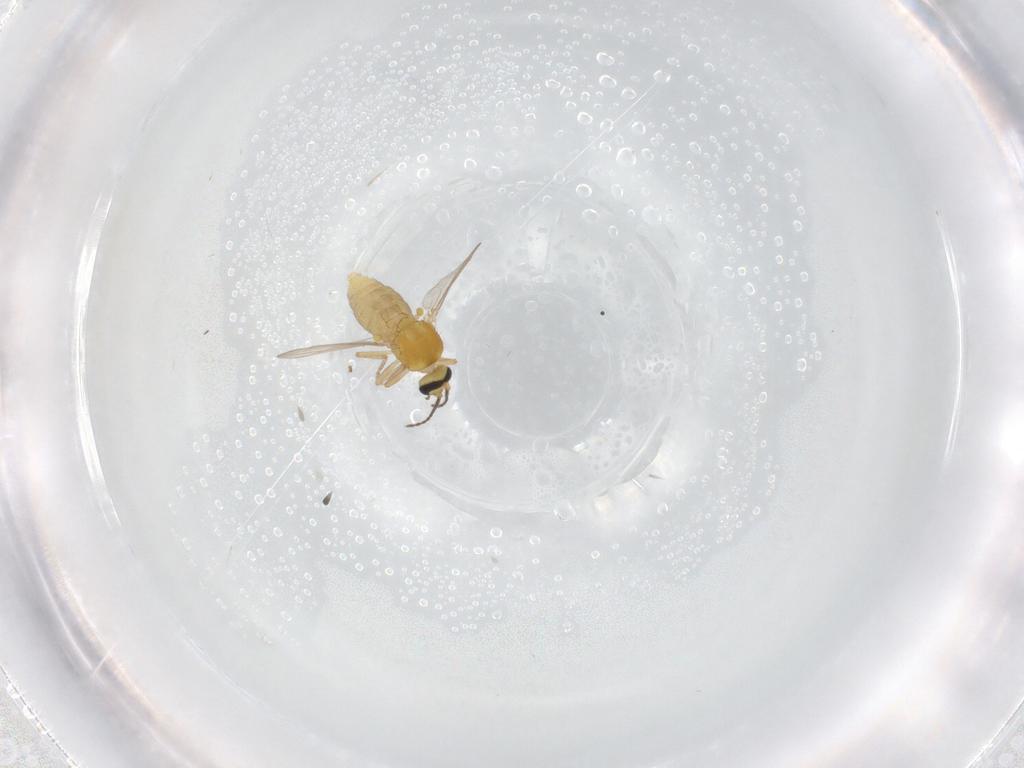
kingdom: Animalia
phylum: Arthropoda
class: Insecta
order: Diptera
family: Ceratopogonidae
